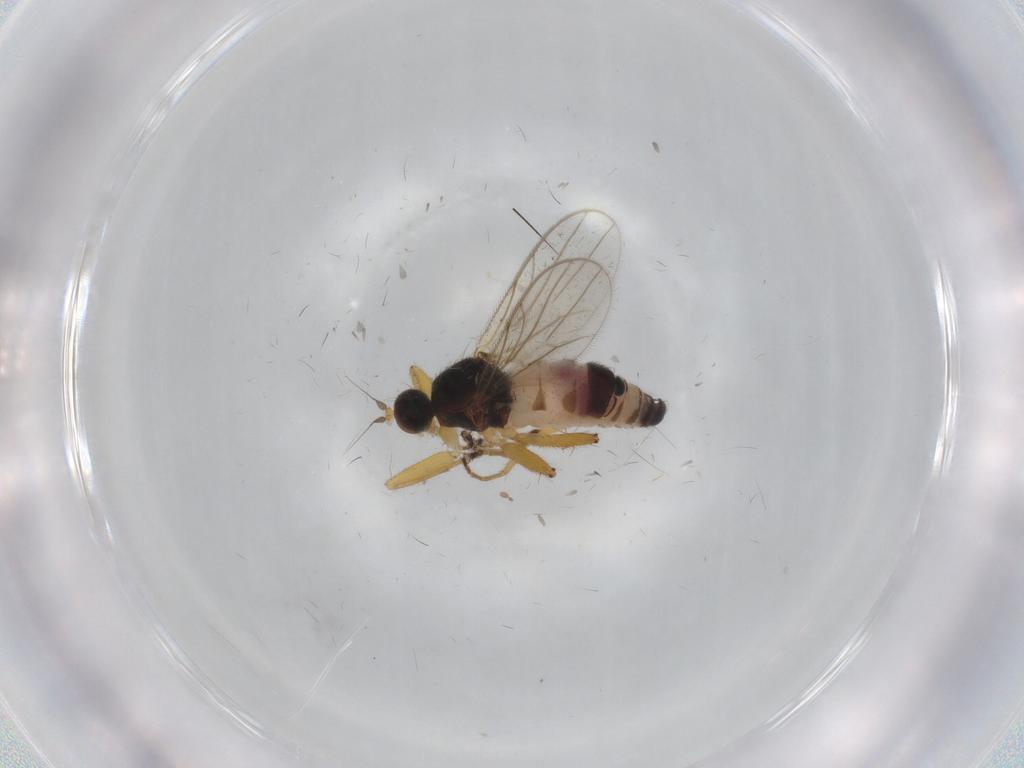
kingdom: Animalia
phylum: Arthropoda
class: Insecta
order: Diptera
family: Hybotidae
